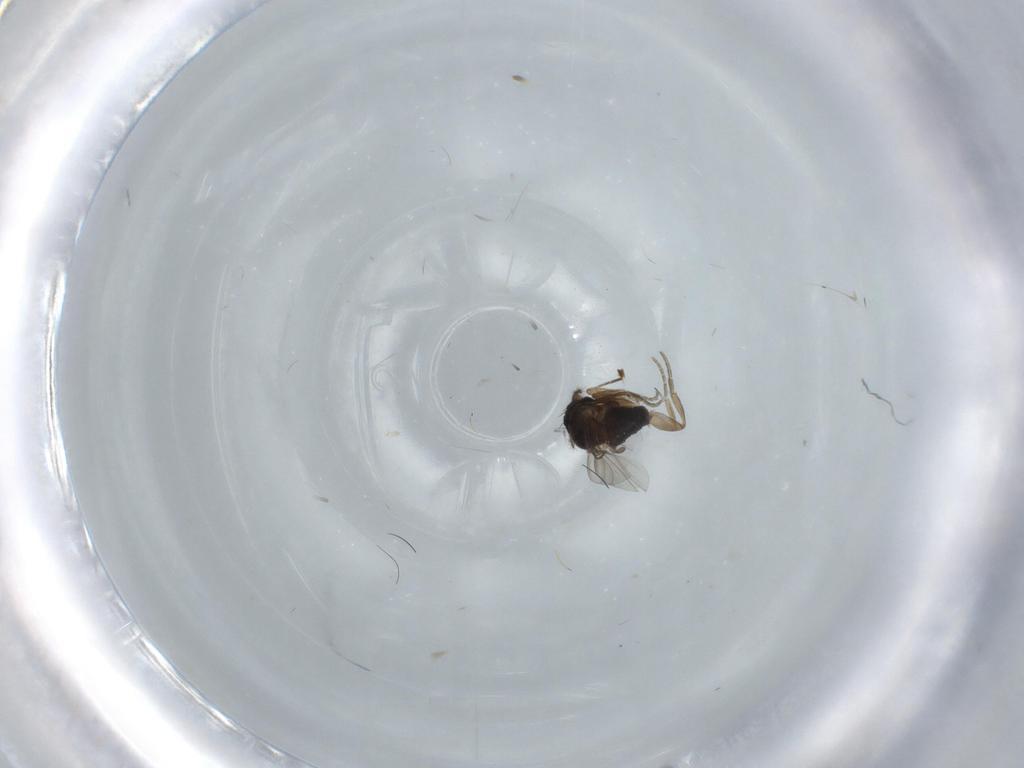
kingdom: Animalia
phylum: Arthropoda
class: Insecta
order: Diptera
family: Phoridae
